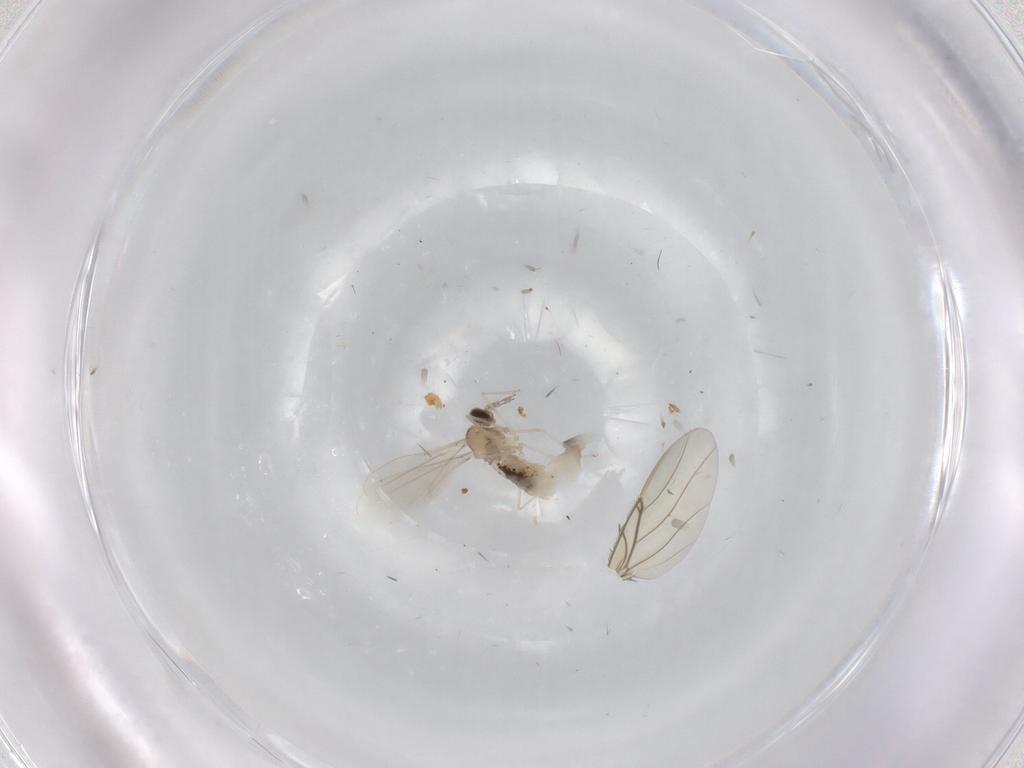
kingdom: Animalia
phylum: Arthropoda
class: Insecta
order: Diptera
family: Mycetophilidae
